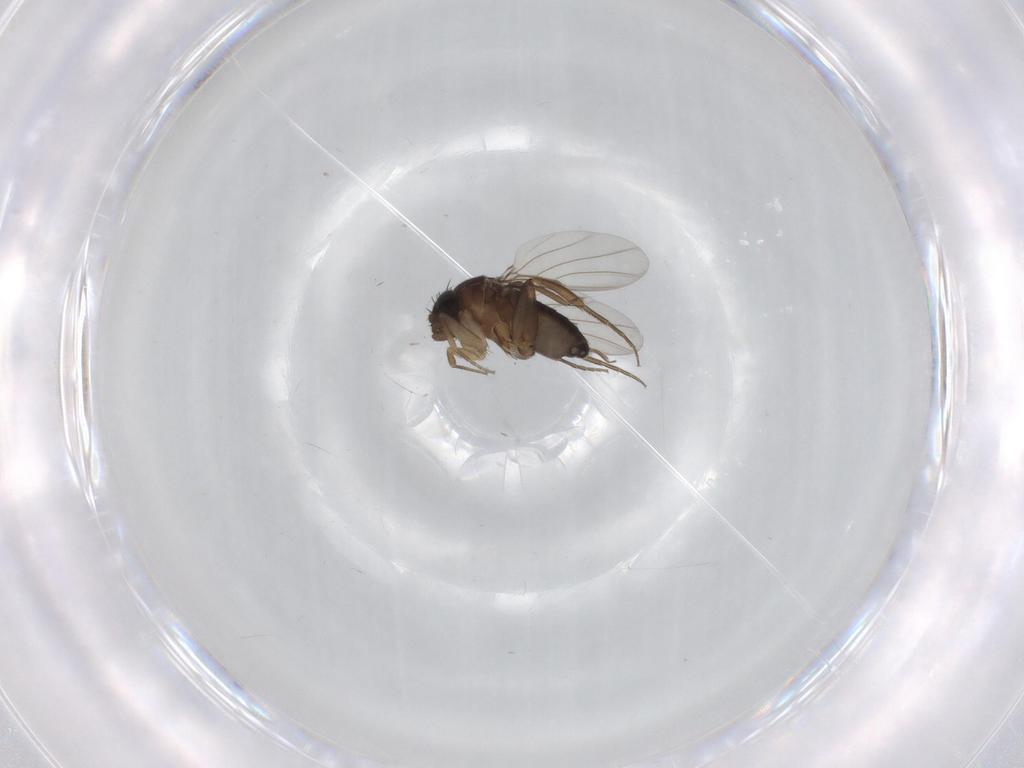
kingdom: Animalia
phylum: Arthropoda
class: Insecta
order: Diptera
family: Phoridae
